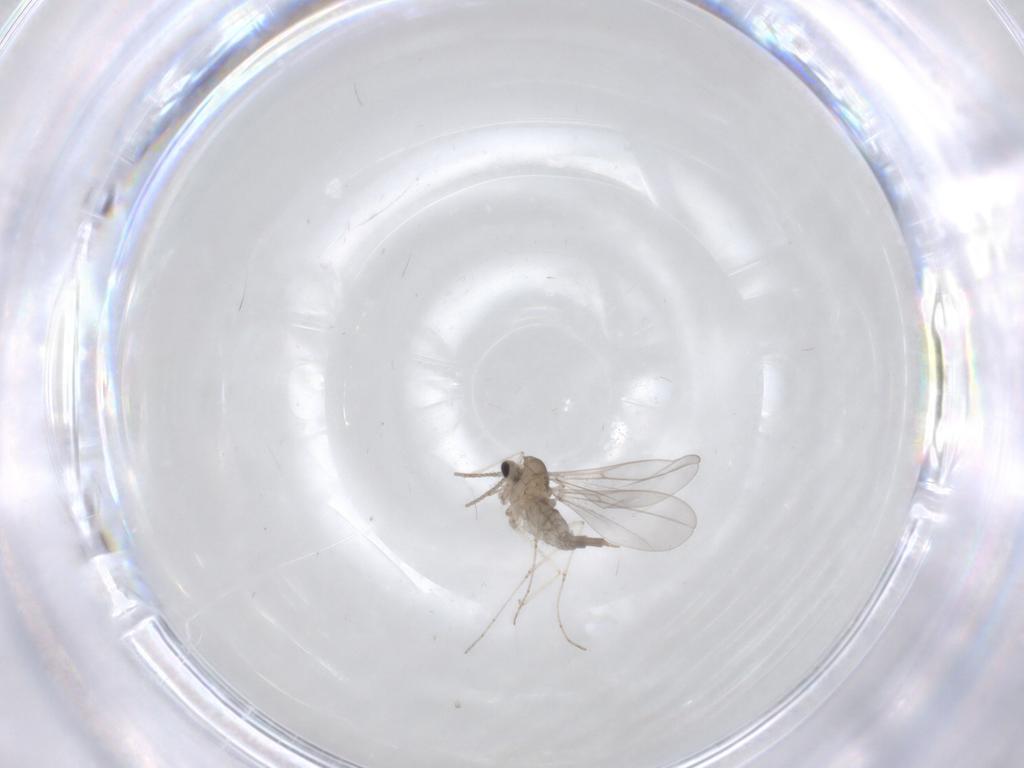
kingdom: Animalia
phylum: Arthropoda
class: Insecta
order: Diptera
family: Cecidomyiidae
